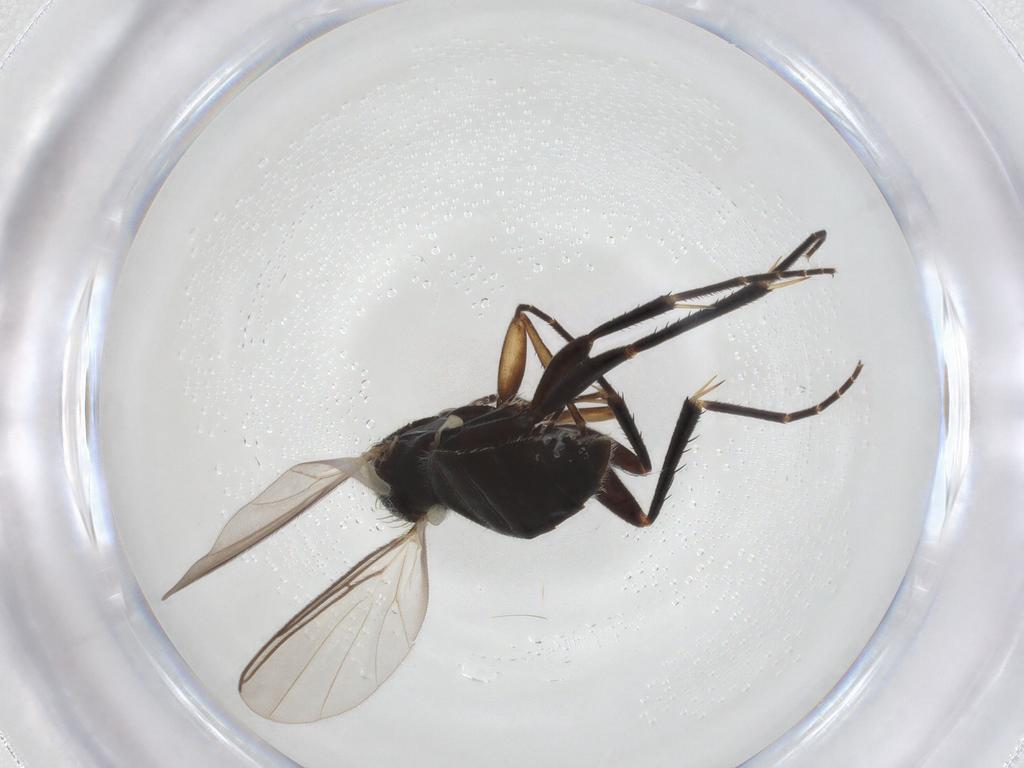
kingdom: Animalia
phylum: Arthropoda
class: Insecta
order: Diptera
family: Mycetophilidae
